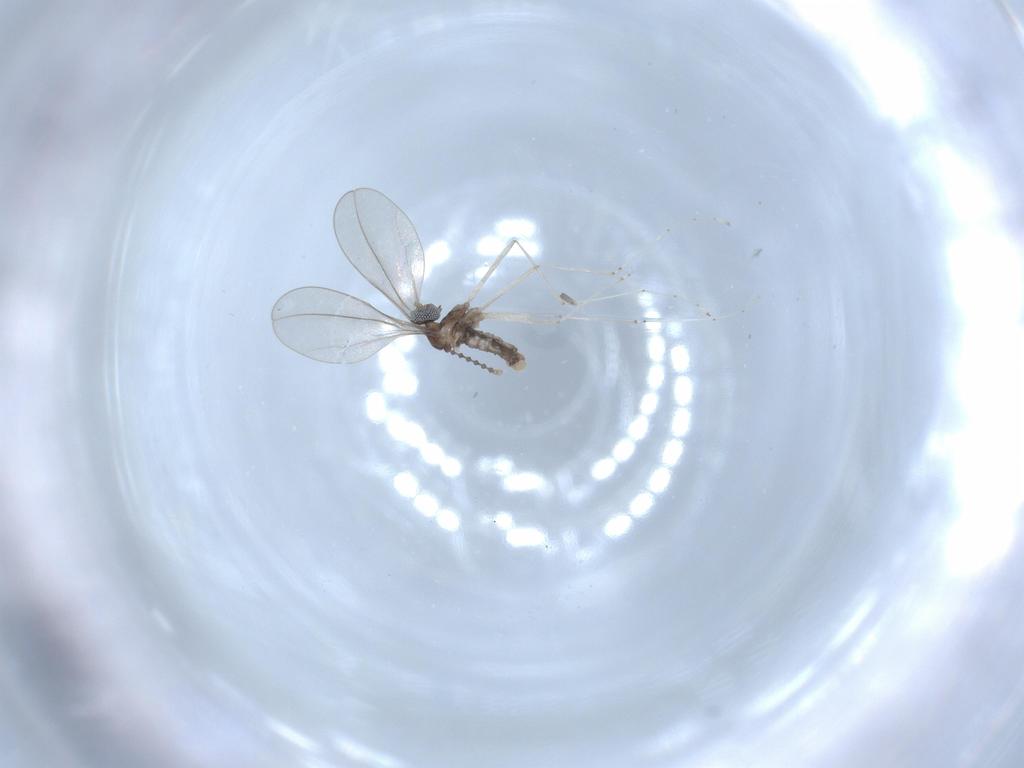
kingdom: Animalia
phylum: Arthropoda
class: Insecta
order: Diptera
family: Cecidomyiidae
